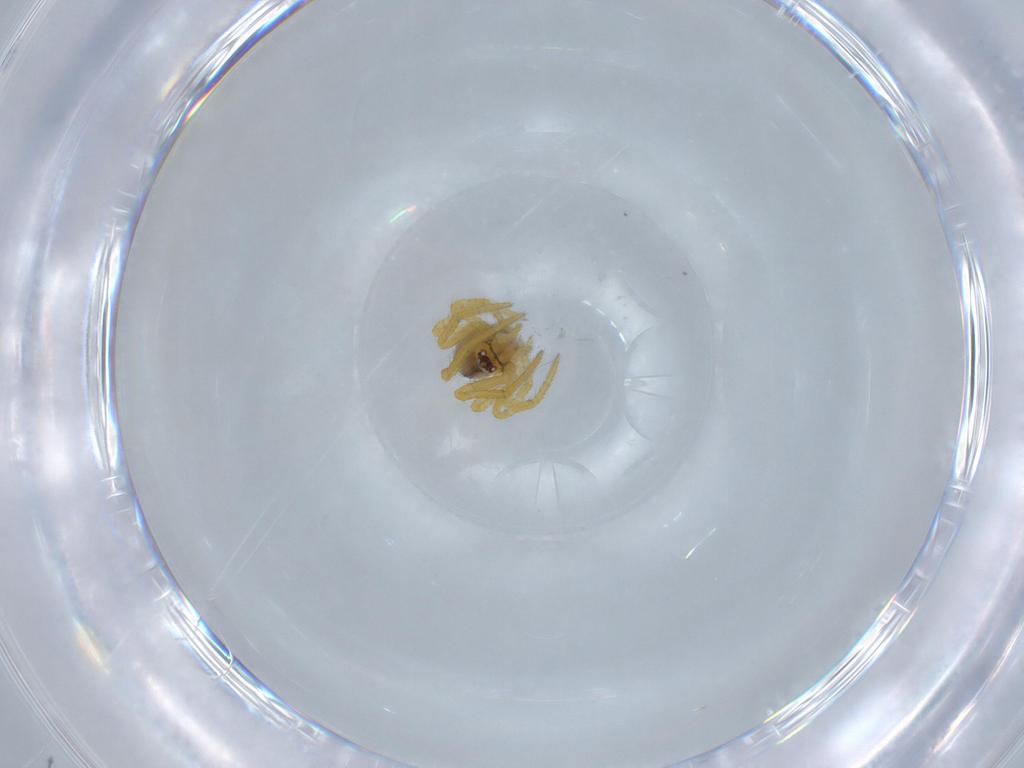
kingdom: Animalia
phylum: Arthropoda
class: Arachnida
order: Araneae
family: Theridiidae
